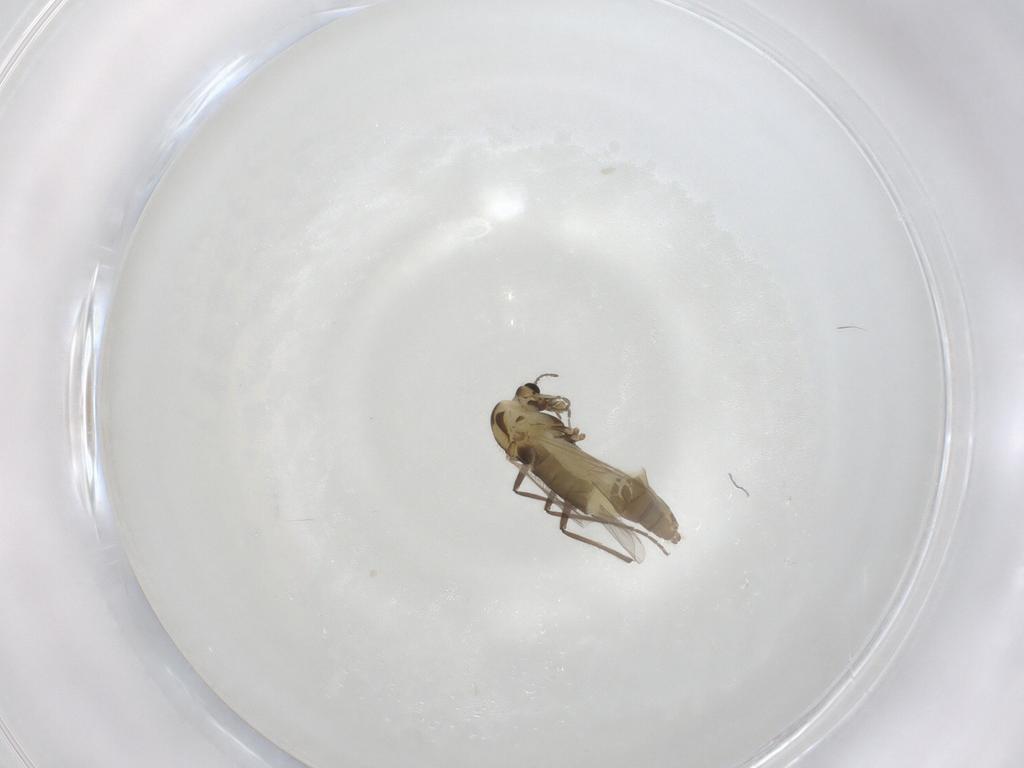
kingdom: Animalia
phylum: Arthropoda
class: Insecta
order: Diptera
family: Chironomidae
